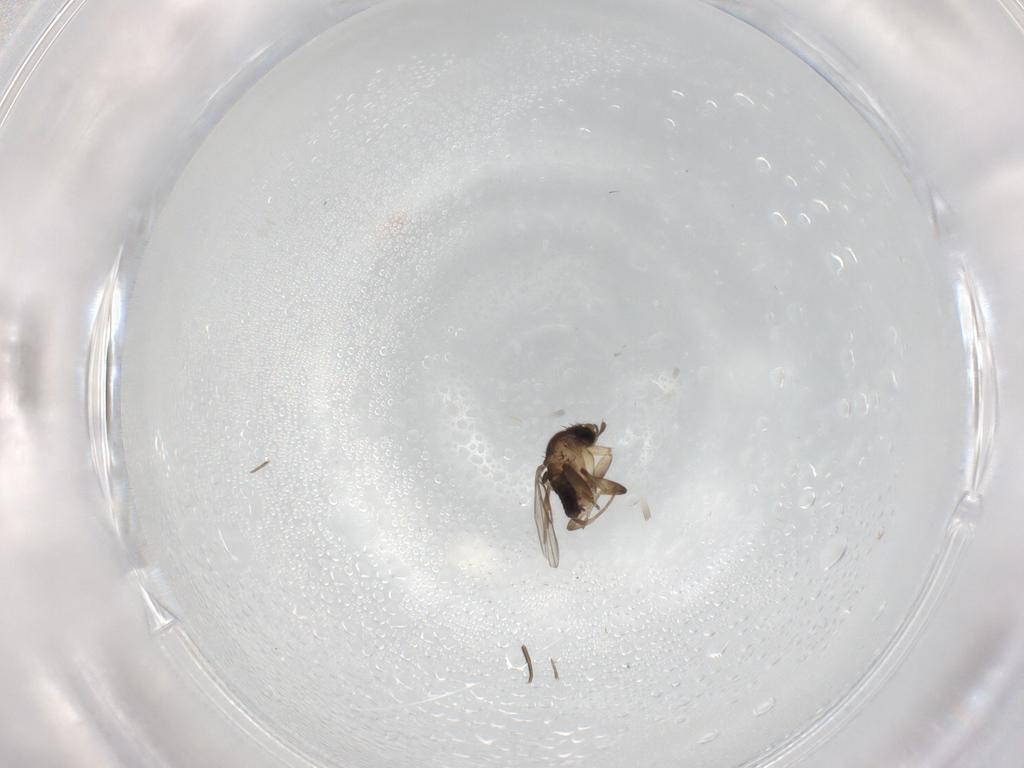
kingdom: Animalia
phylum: Arthropoda
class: Insecta
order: Diptera
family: Phoridae
